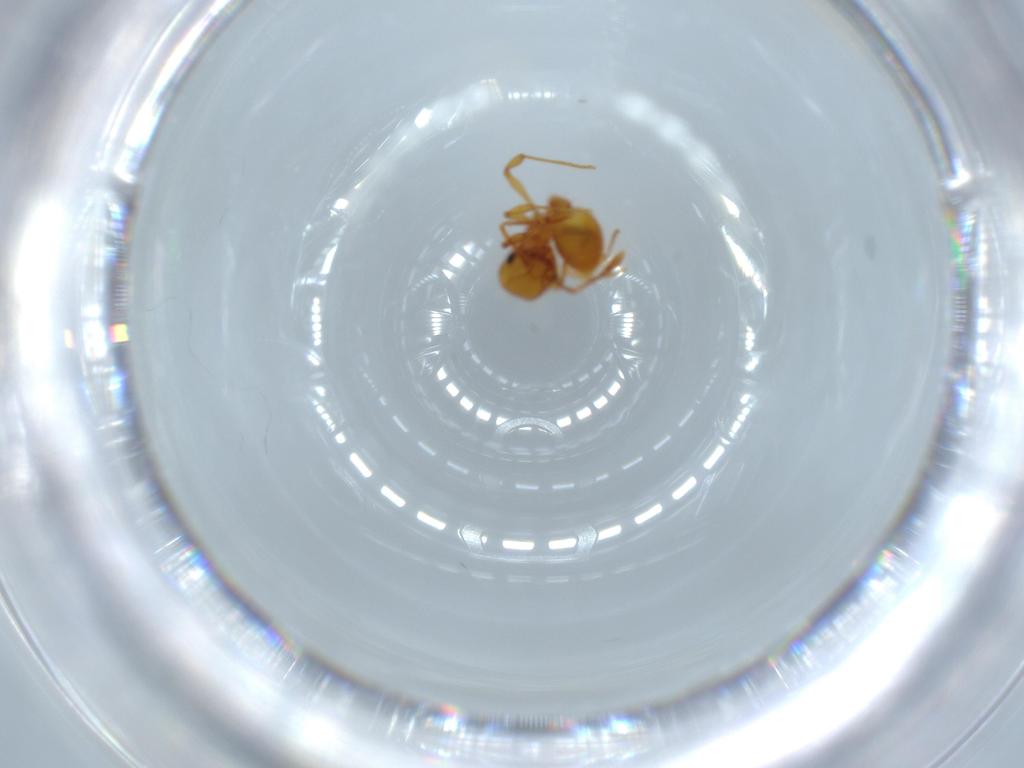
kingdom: Animalia
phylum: Arthropoda
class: Insecta
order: Hymenoptera
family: Formicidae
